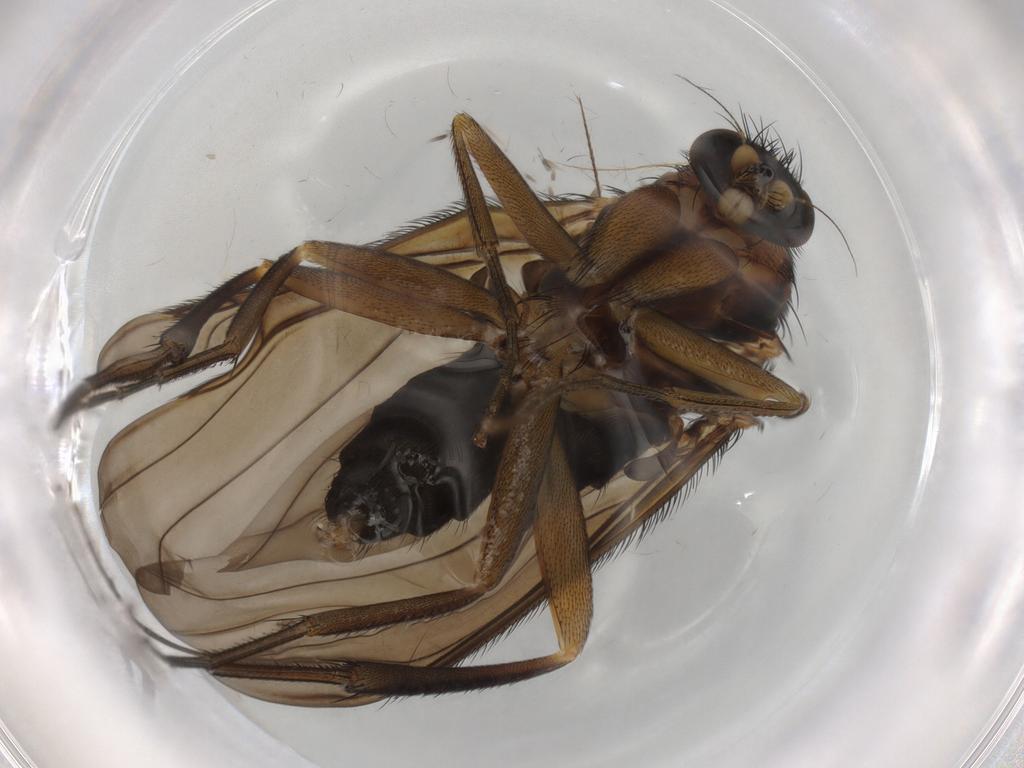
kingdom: Animalia
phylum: Arthropoda
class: Insecta
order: Diptera
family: Phoridae
